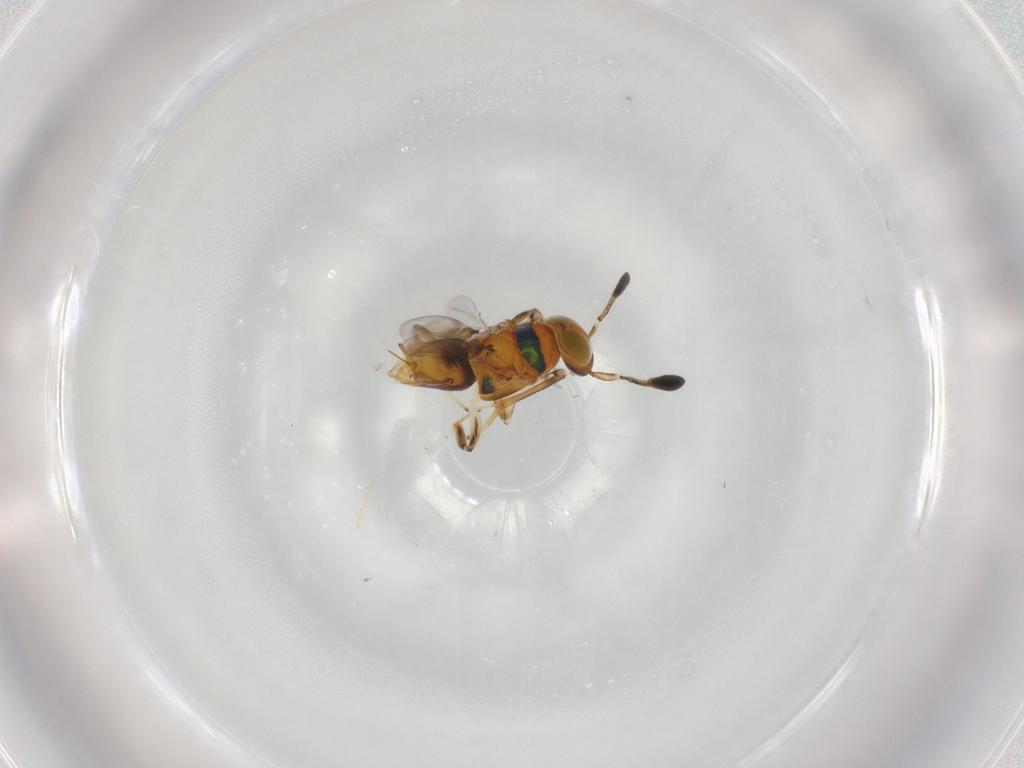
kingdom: Animalia
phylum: Arthropoda
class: Insecta
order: Hymenoptera
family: Encyrtidae
